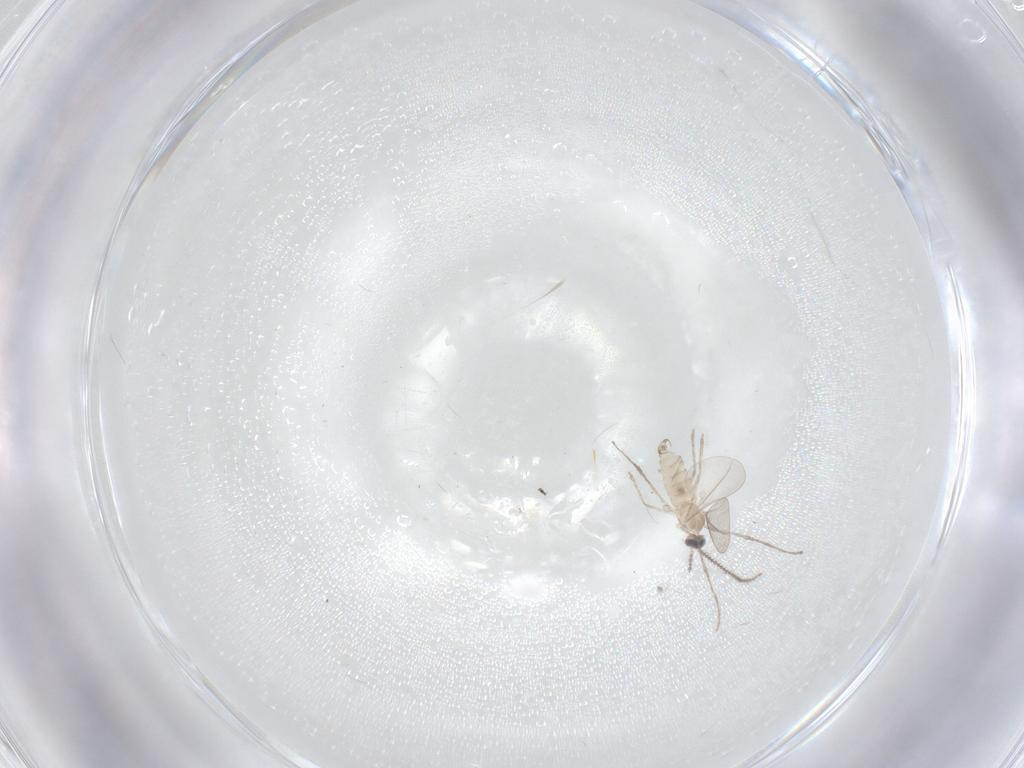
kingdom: Animalia
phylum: Arthropoda
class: Insecta
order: Diptera
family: Cecidomyiidae
